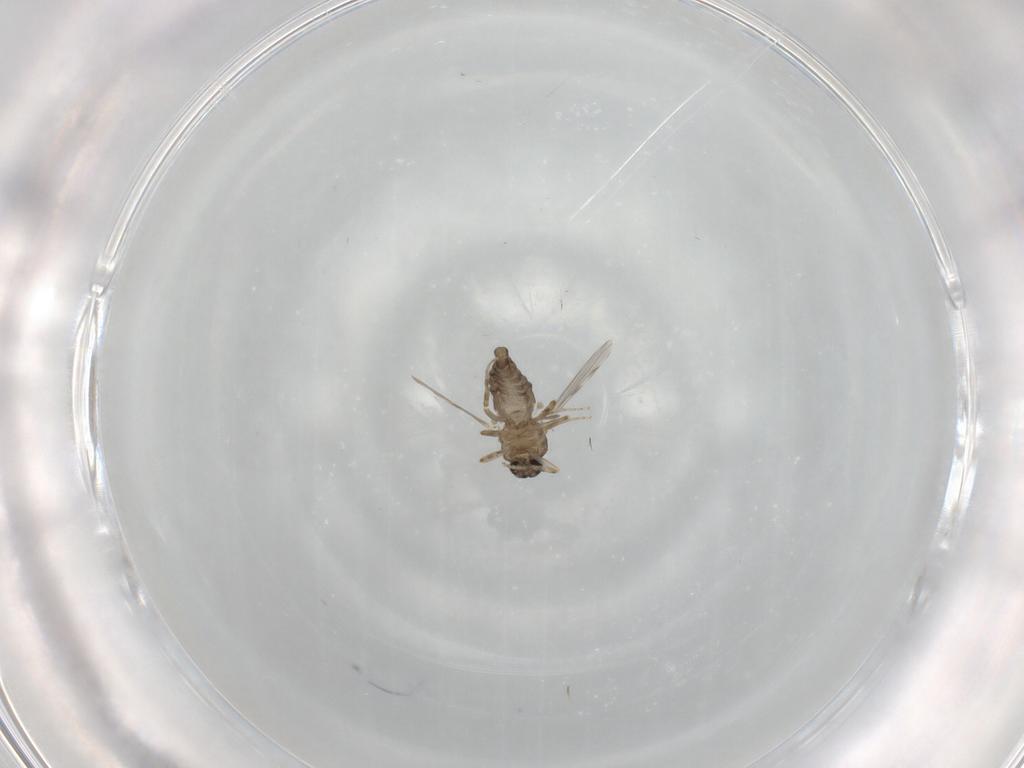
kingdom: Animalia
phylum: Arthropoda
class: Insecta
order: Diptera
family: Ceratopogonidae
